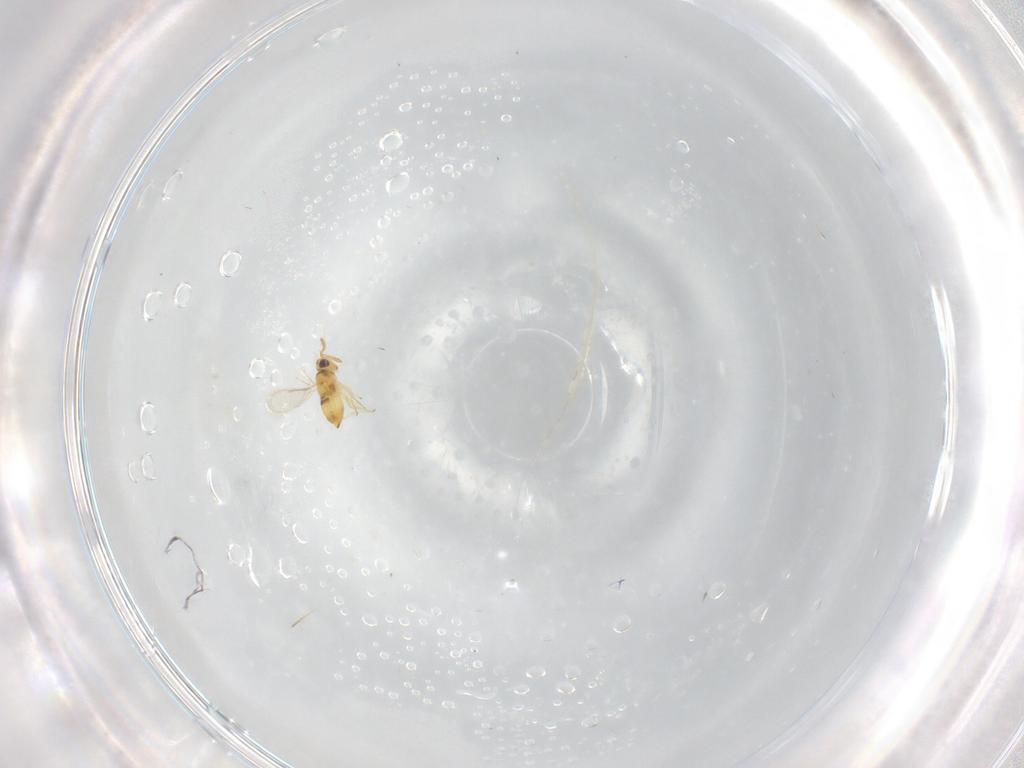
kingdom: Animalia
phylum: Arthropoda
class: Insecta
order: Hymenoptera
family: Aphelinidae
